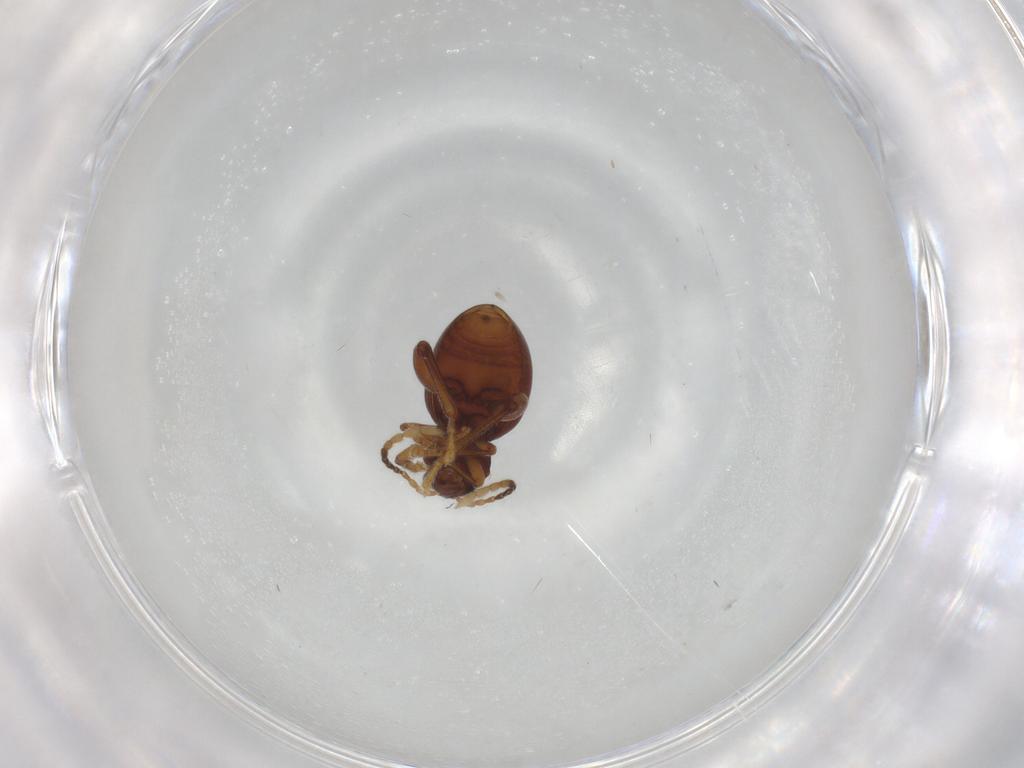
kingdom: Animalia
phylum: Arthropoda
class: Insecta
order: Coleoptera
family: Chrysomelidae
